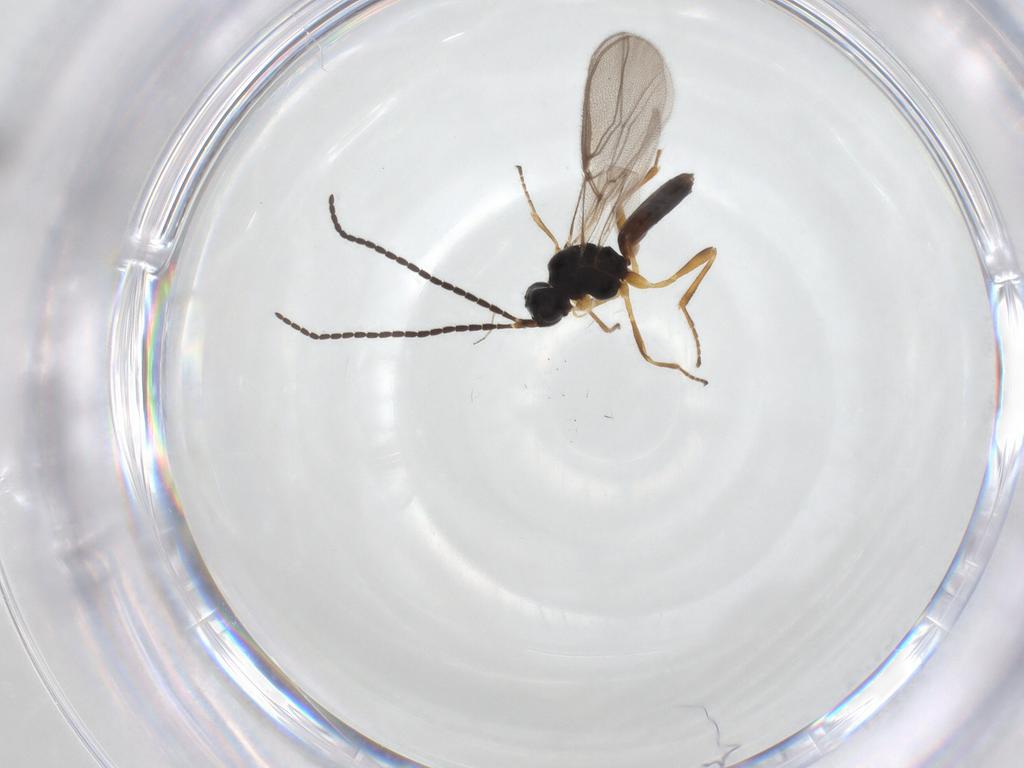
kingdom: Animalia
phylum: Arthropoda
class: Insecta
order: Hymenoptera
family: Braconidae
